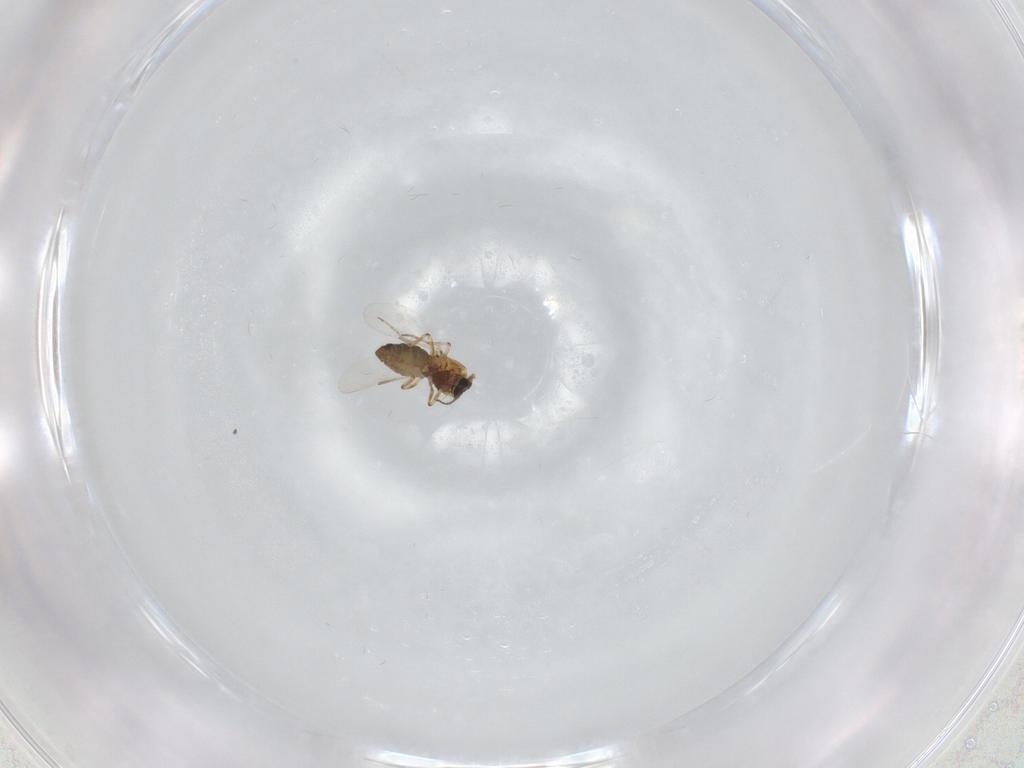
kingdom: Animalia
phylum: Arthropoda
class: Insecta
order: Diptera
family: Ceratopogonidae
